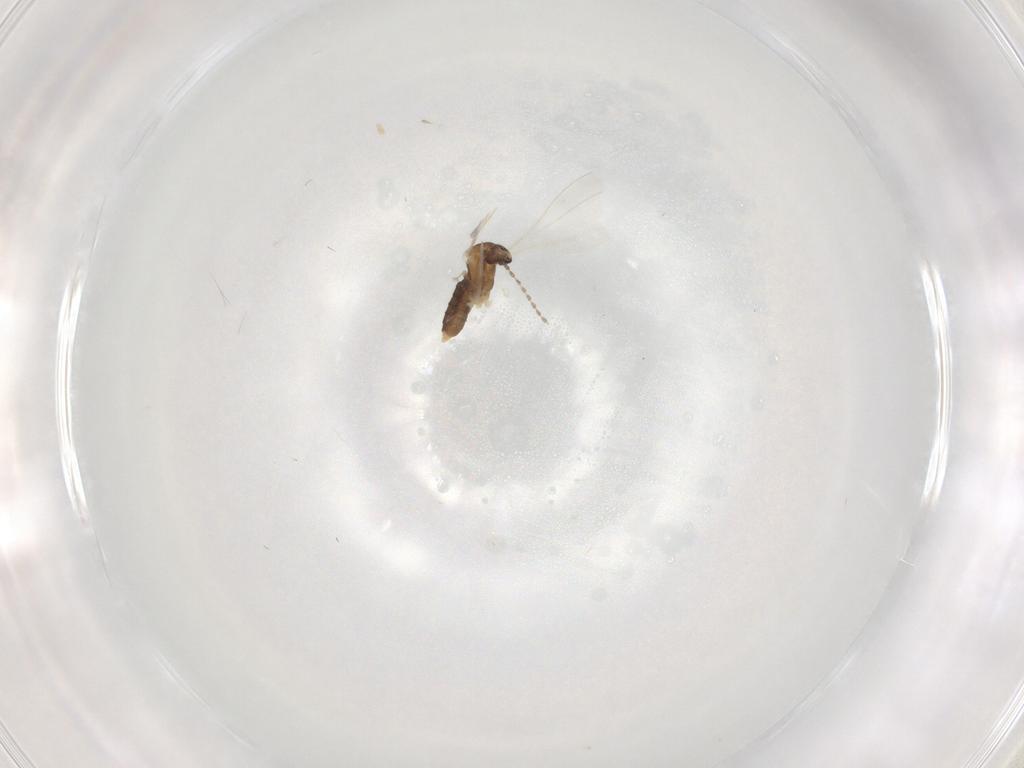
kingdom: Animalia
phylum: Arthropoda
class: Insecta
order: Diptera
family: Cecidomyiidae
